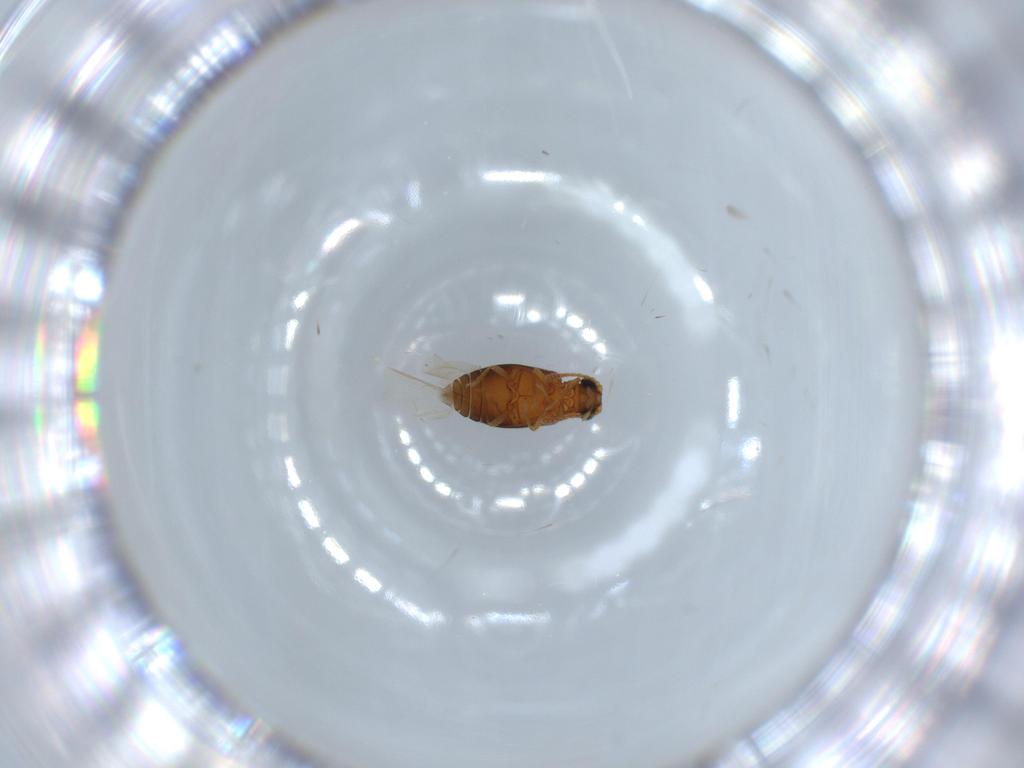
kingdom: Animalia
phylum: Arthropoda
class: Insecta
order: Coleoptera
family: Aderidae
